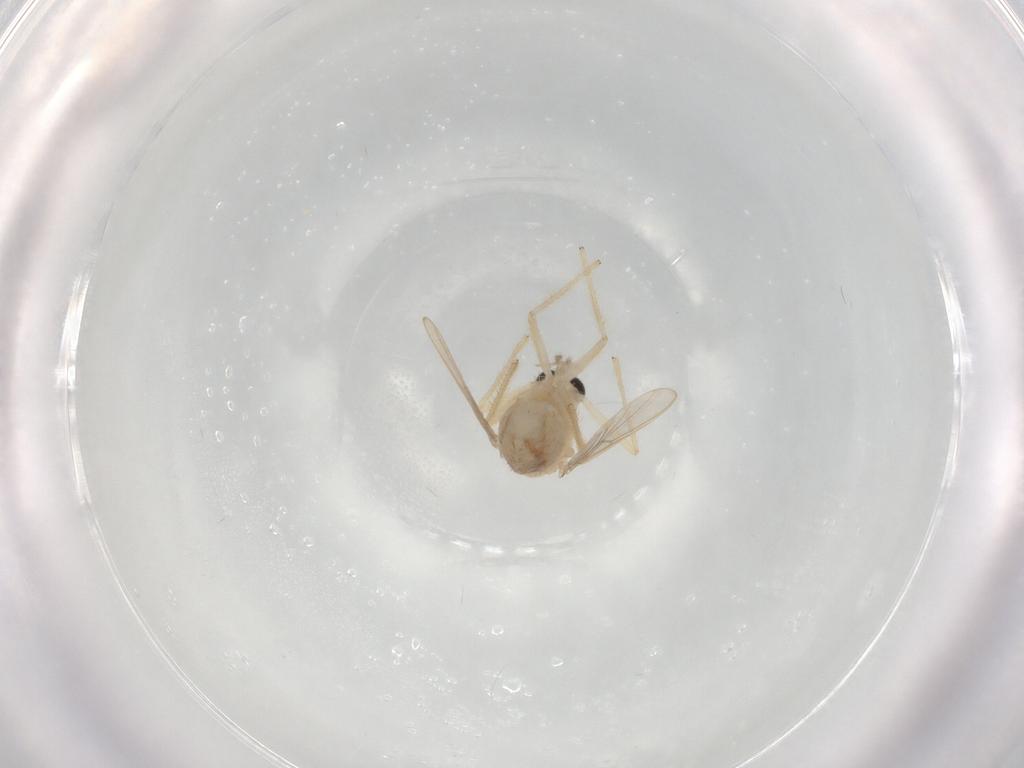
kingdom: Animalia
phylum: Arthropoda
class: Insecta
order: Diptera
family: Chironomidae
